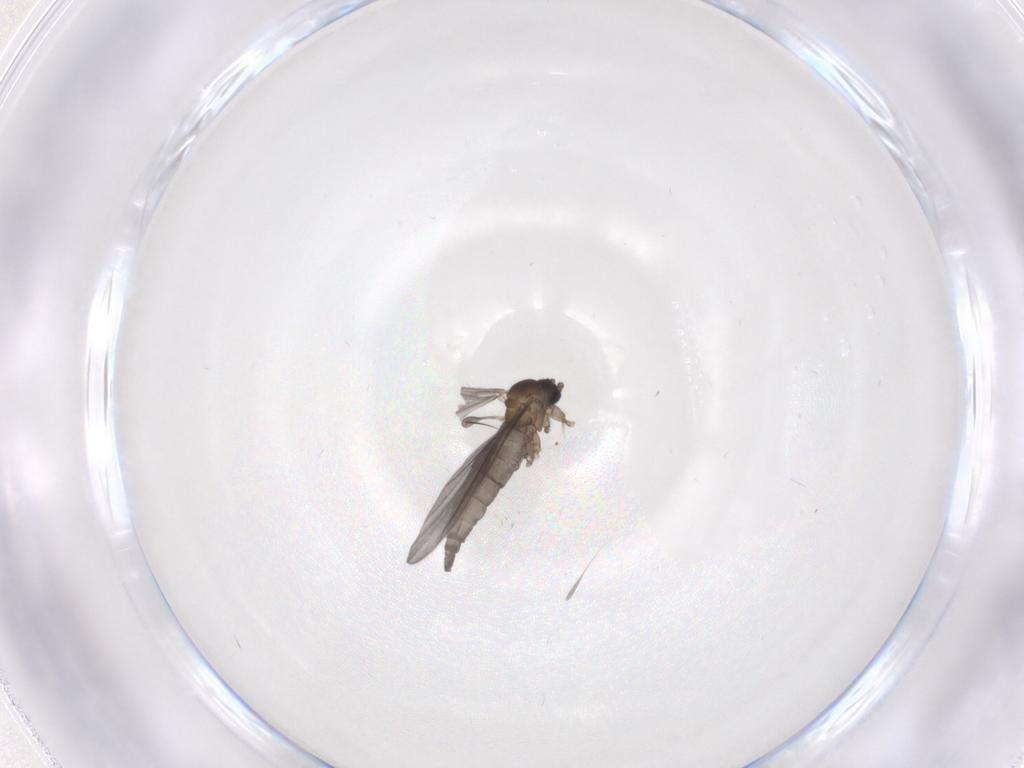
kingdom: Animalia
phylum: Arthropoda
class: Insecta
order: Diptera
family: Sciaridae
